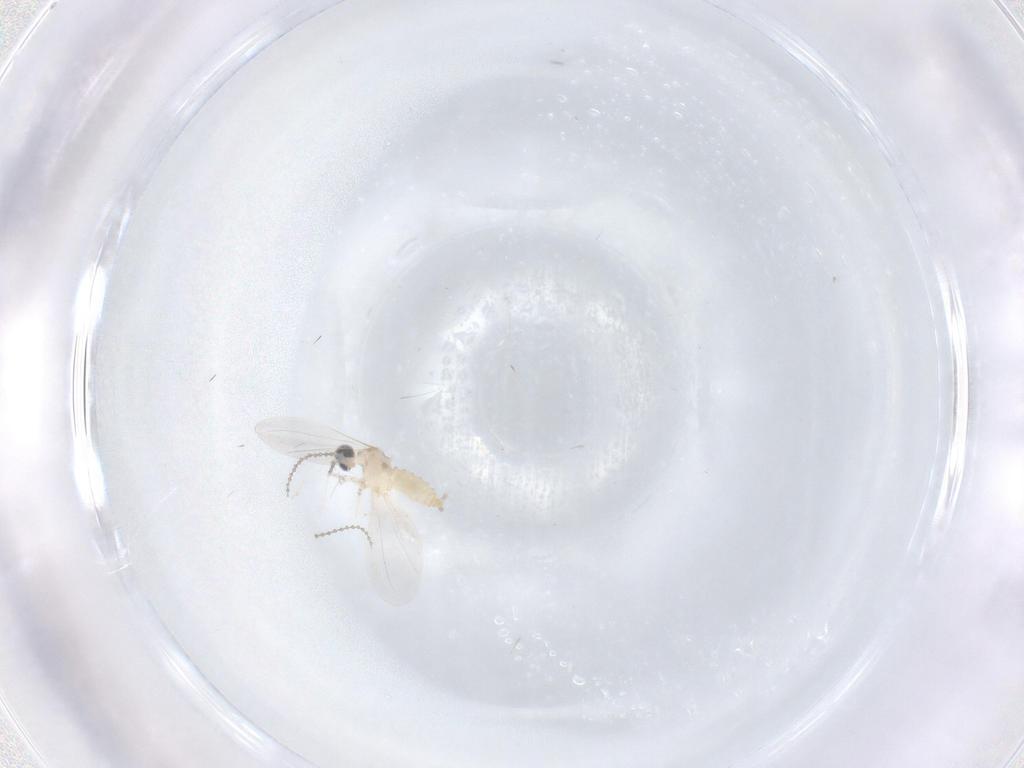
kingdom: Animalia
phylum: Arthropoda
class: Insecta
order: Diptera
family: Cecidomyiidae
